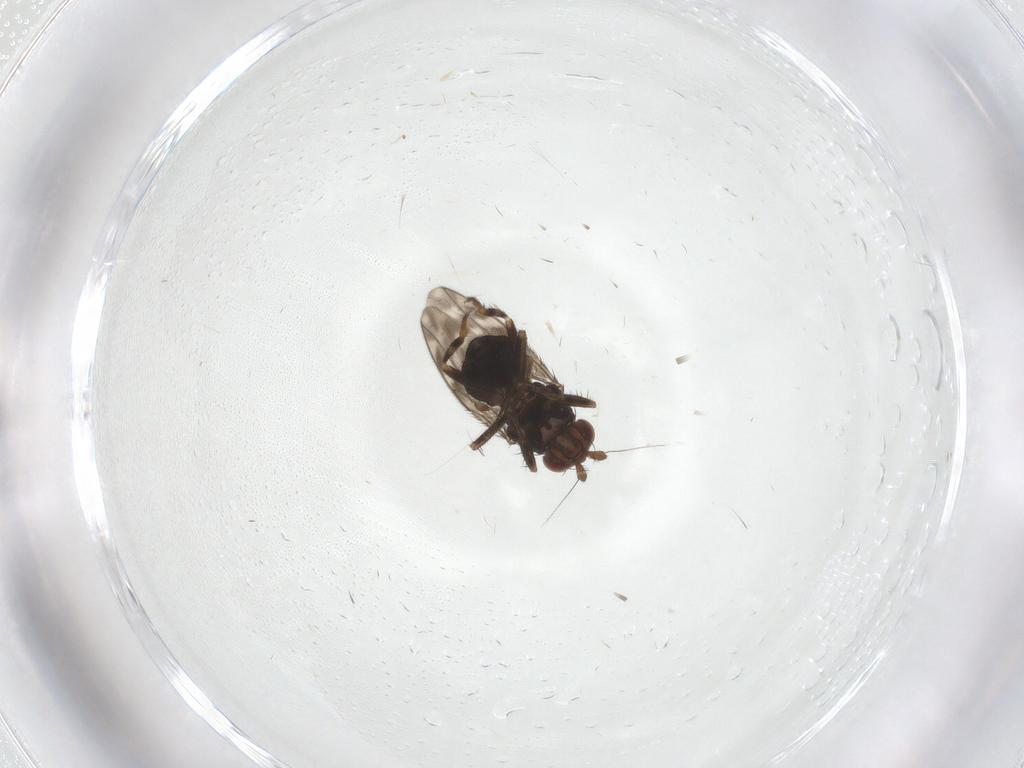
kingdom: Animalia
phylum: Arthropoda
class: Insecta
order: Diptera
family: Sphaeroceridae
